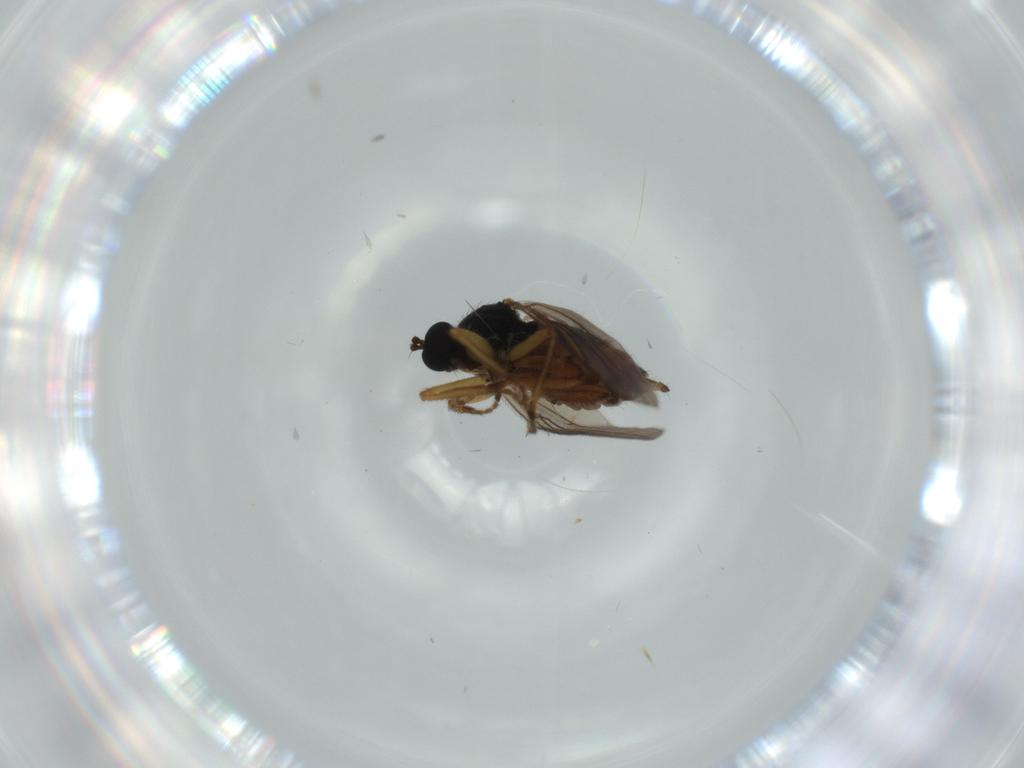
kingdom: Animalia
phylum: Arthropoda
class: Insecta
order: Diptera
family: Hybotidae
